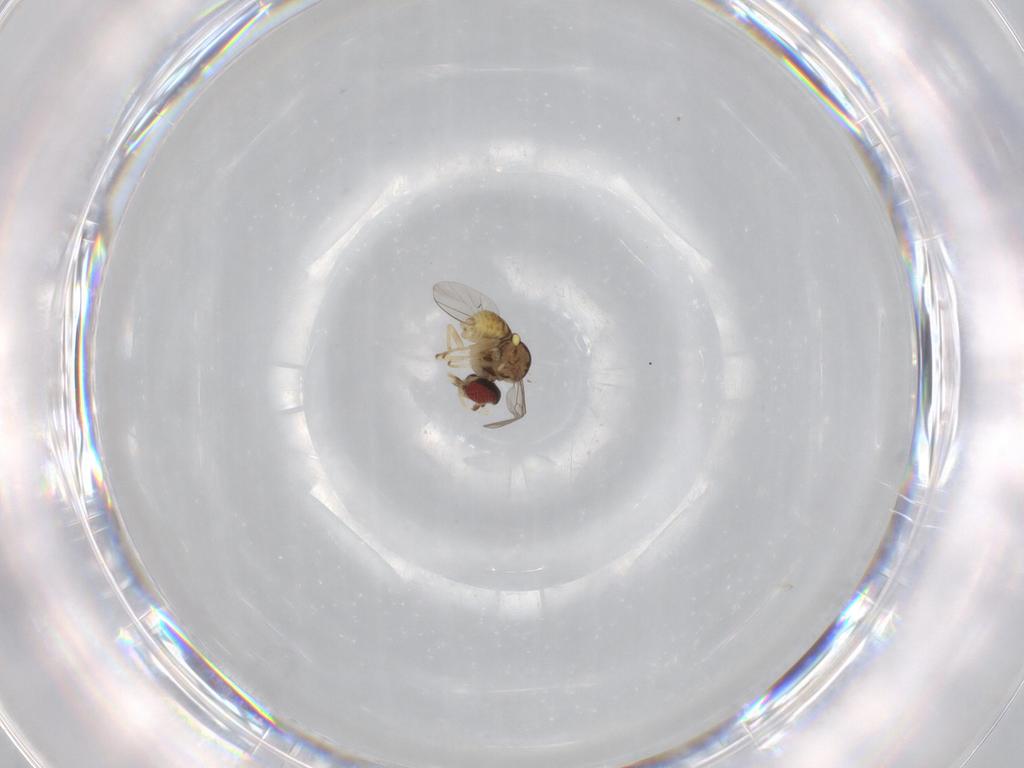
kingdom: Animalia
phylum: Arthropoda
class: Insecta
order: Diptera
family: Bombyliidae
